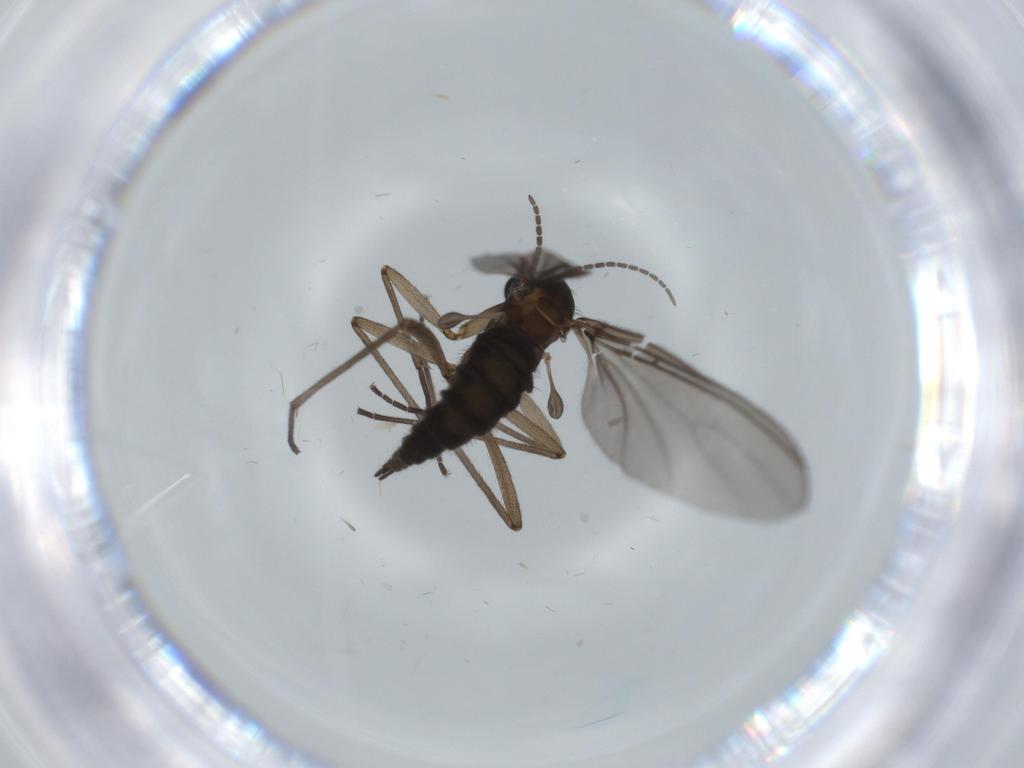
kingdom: Animalia
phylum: Arthropoda
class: Insecta
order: Diptera
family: Sciaridae
